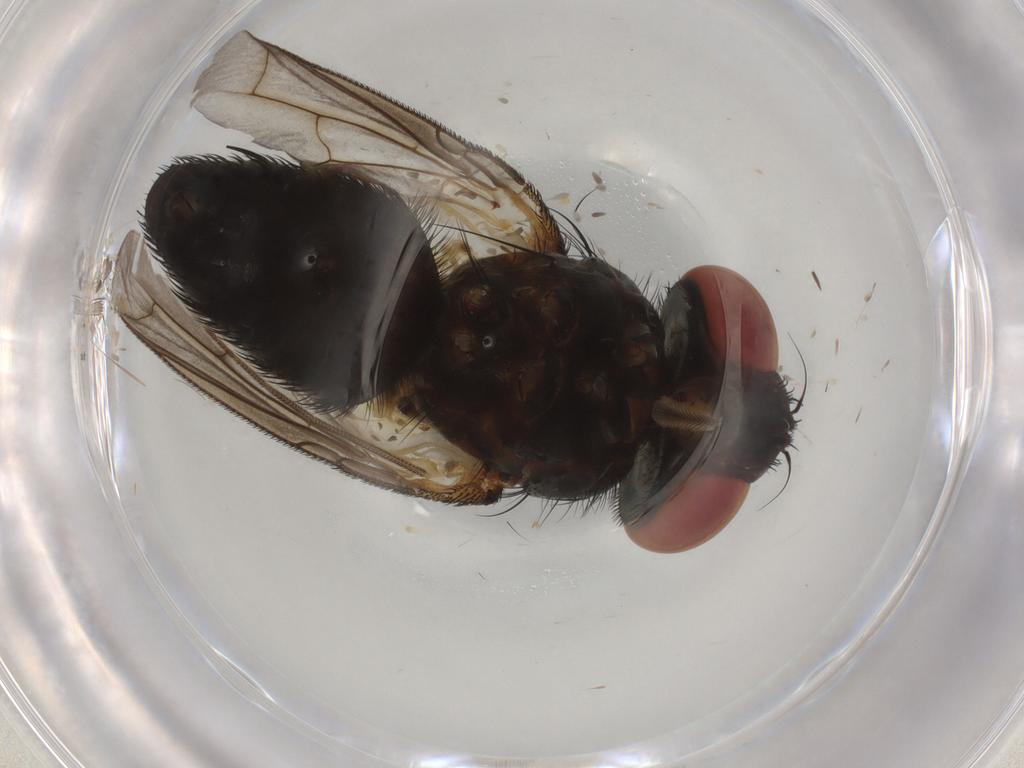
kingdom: Animalia
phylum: Arthropoda
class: Insecta
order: Diptera
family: Sarcophagidae
